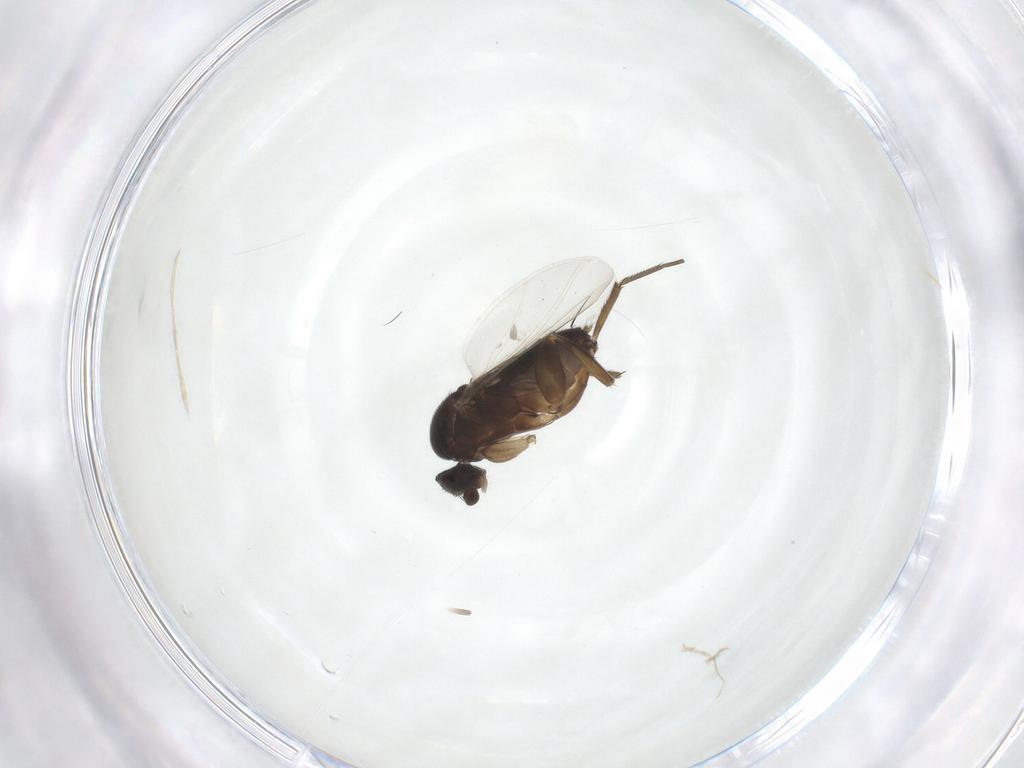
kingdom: Animalia
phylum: Arthropoda
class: Insecta
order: Diptera
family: Phoridae
